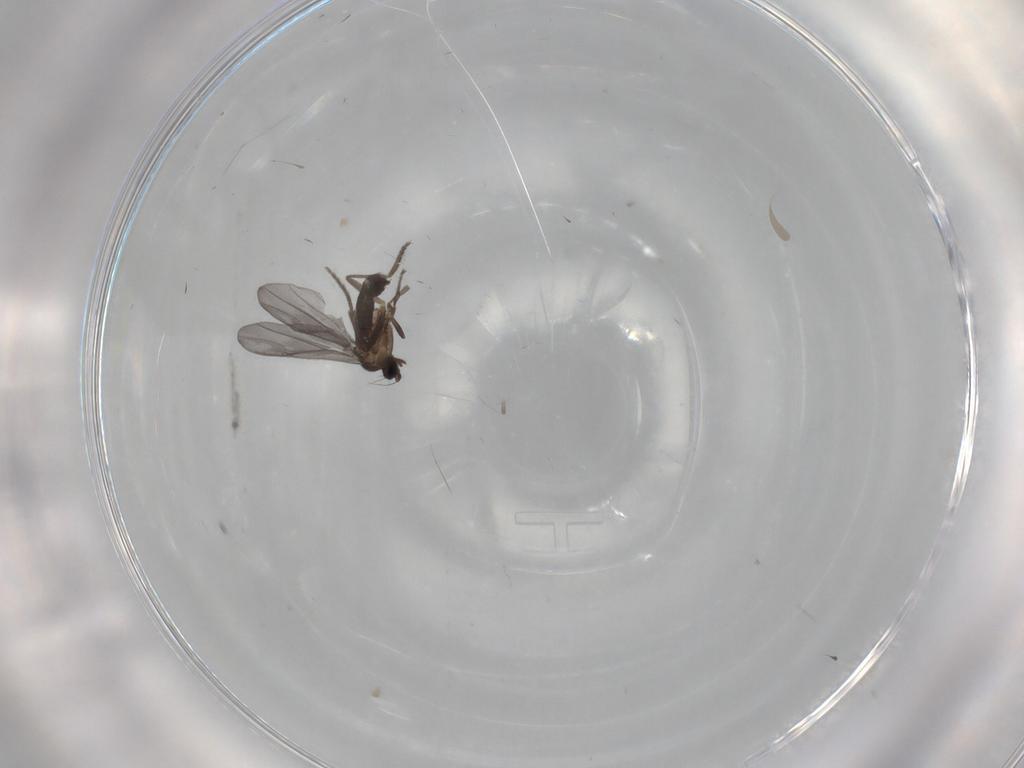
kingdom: Animalia
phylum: Arthropoda
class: Insecta
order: Diptera
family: Phoridae
